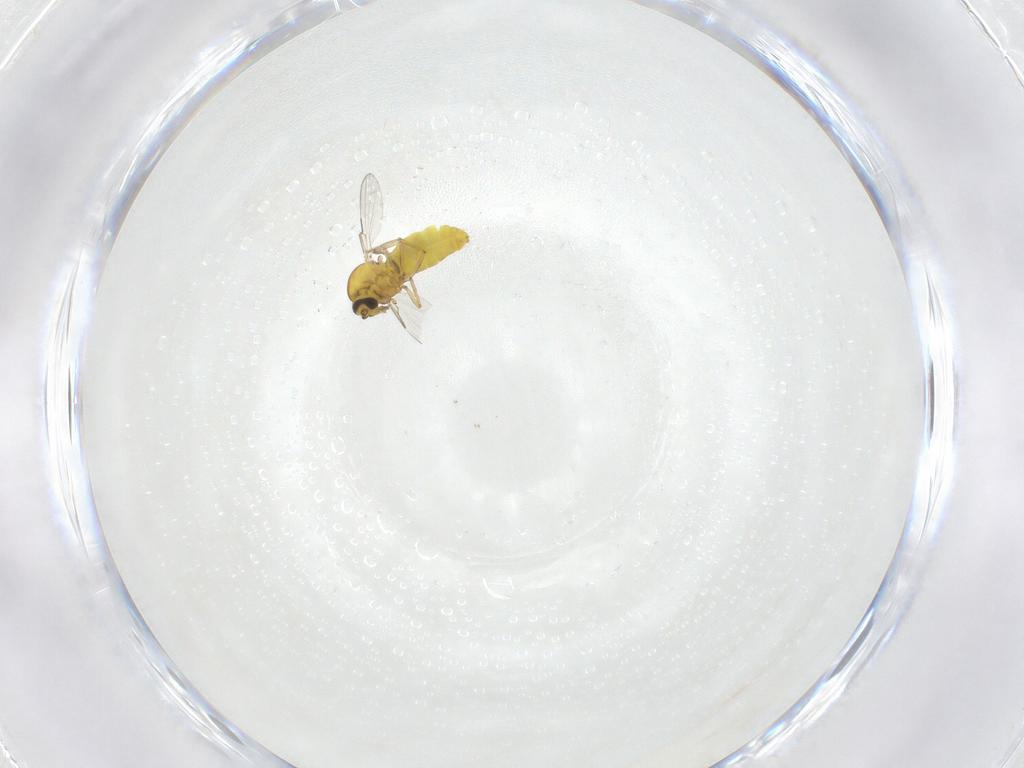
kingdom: Animalia
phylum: Arthropoda
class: Insecta
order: Diptera
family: Ceratopogonidae
